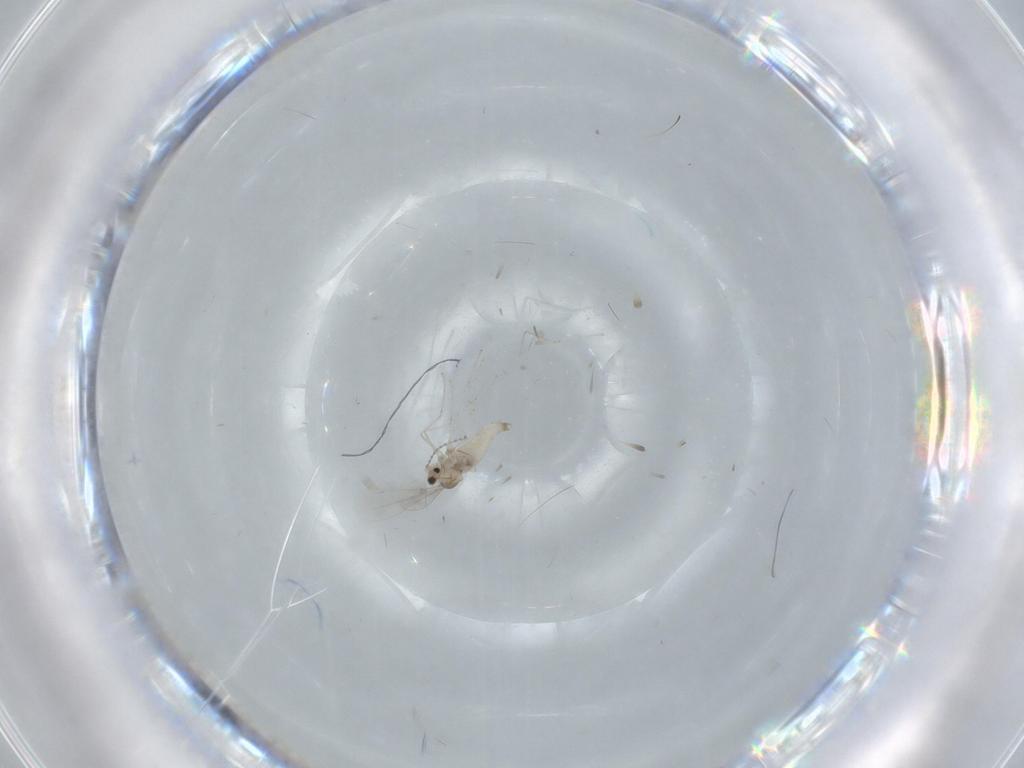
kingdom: Animalia
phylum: Arthropoda
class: Insecta
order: Diptera
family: Cecidomyiidae
